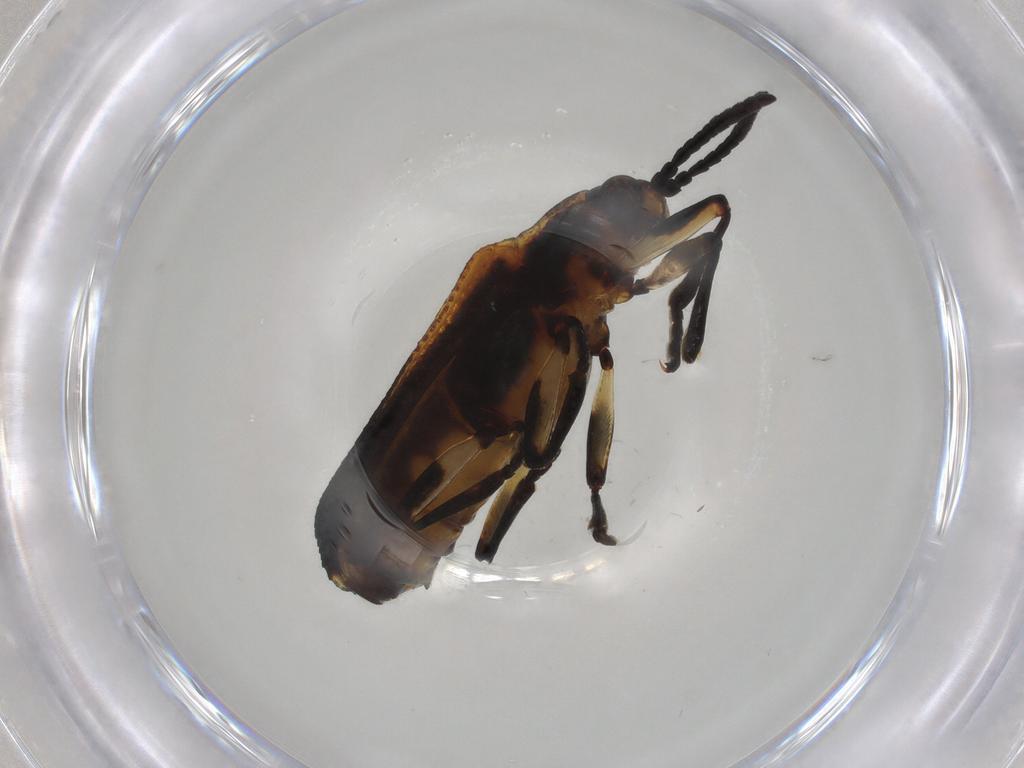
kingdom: Animalia
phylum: Arthropoda
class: Insecta
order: Coleoptera
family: Chrysomelidae
